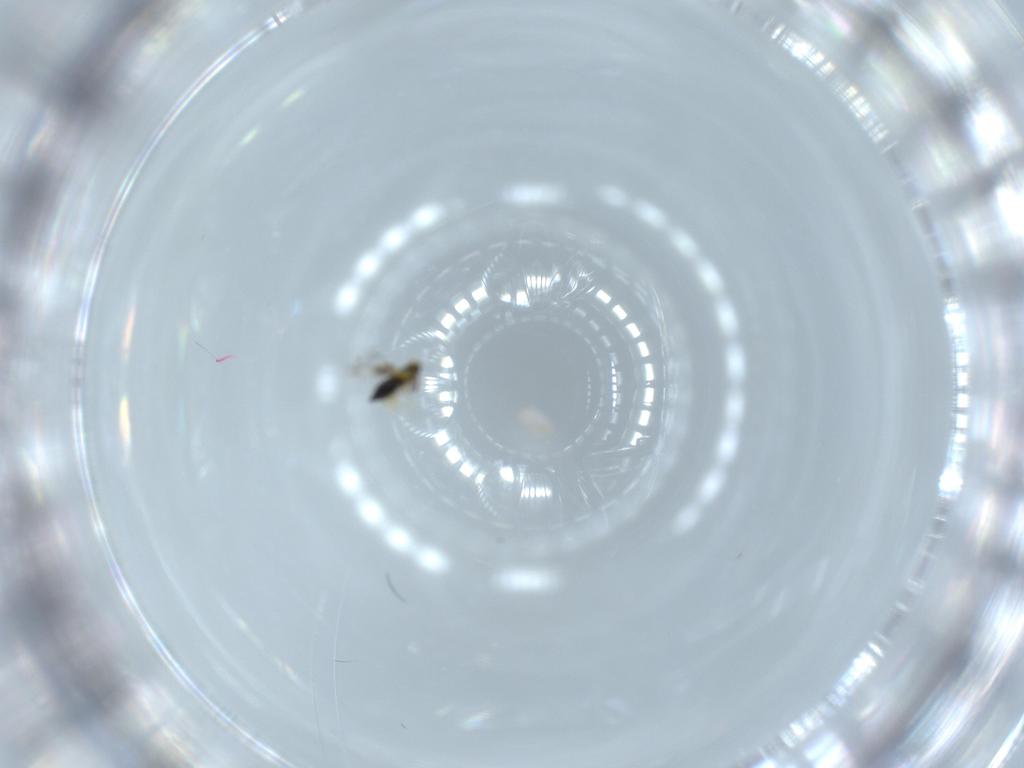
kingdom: Animalia
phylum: Arthropoda
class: Insecta
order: Hymenoptera
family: Signiphoridae
